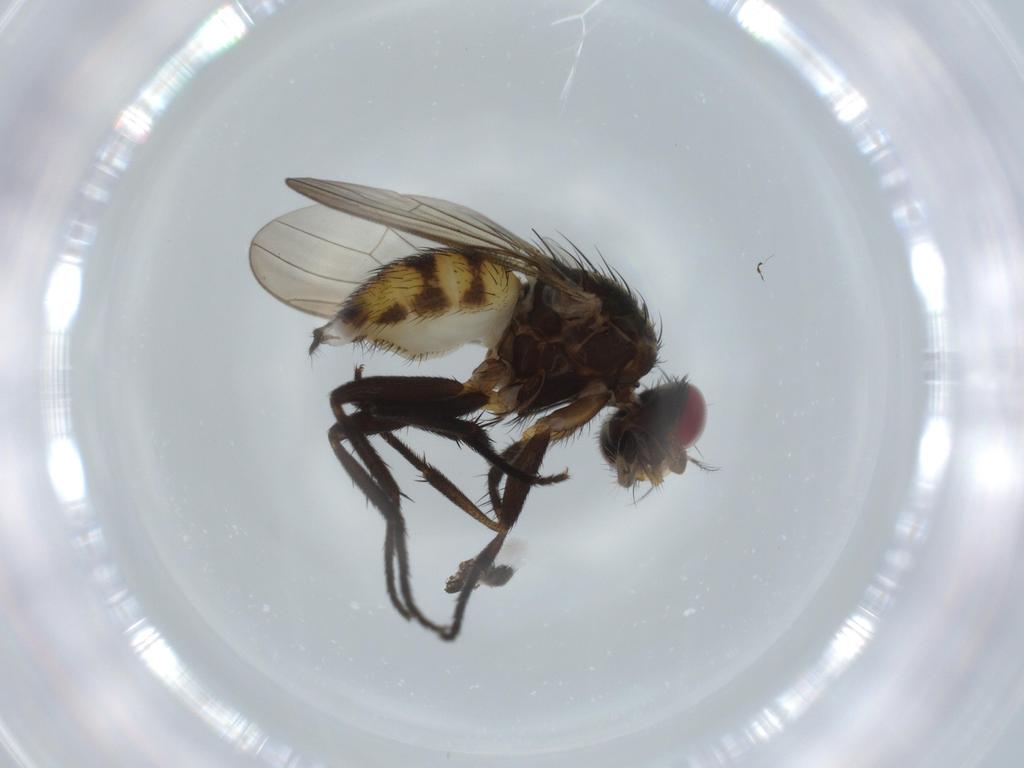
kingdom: Animalia
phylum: Arthropoda
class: Insecta
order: Diptera
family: Anthomyiidae
